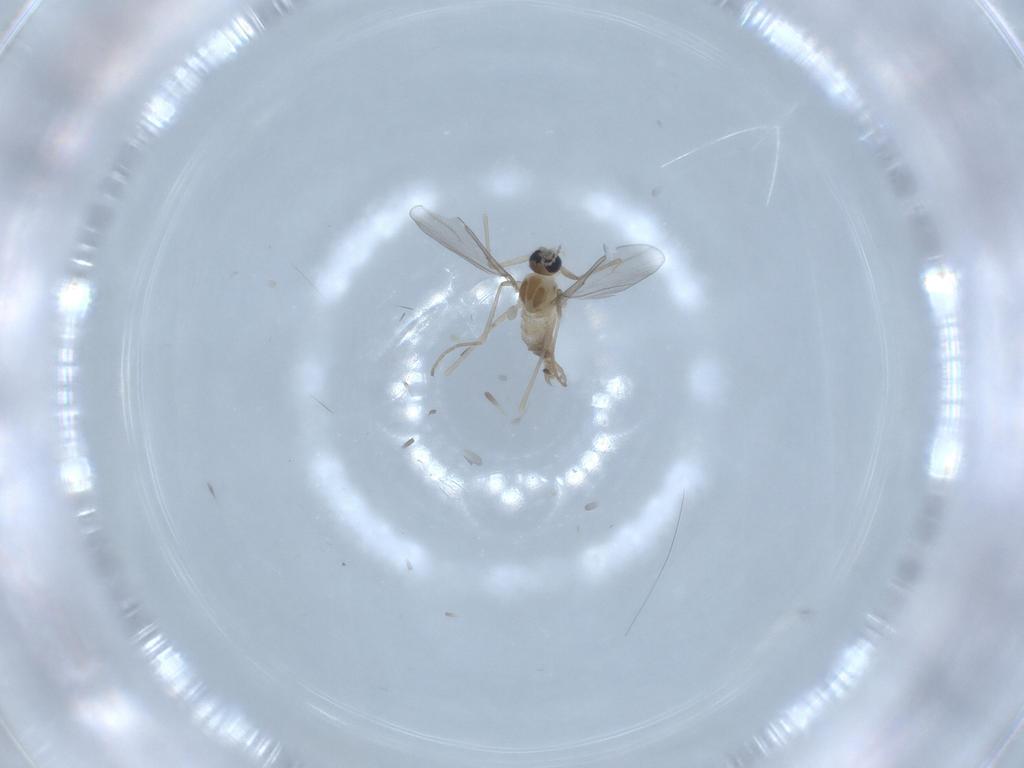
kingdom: Animalia
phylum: Arthropoda
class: Insecta
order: Diptera
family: Cecidomyiidae
